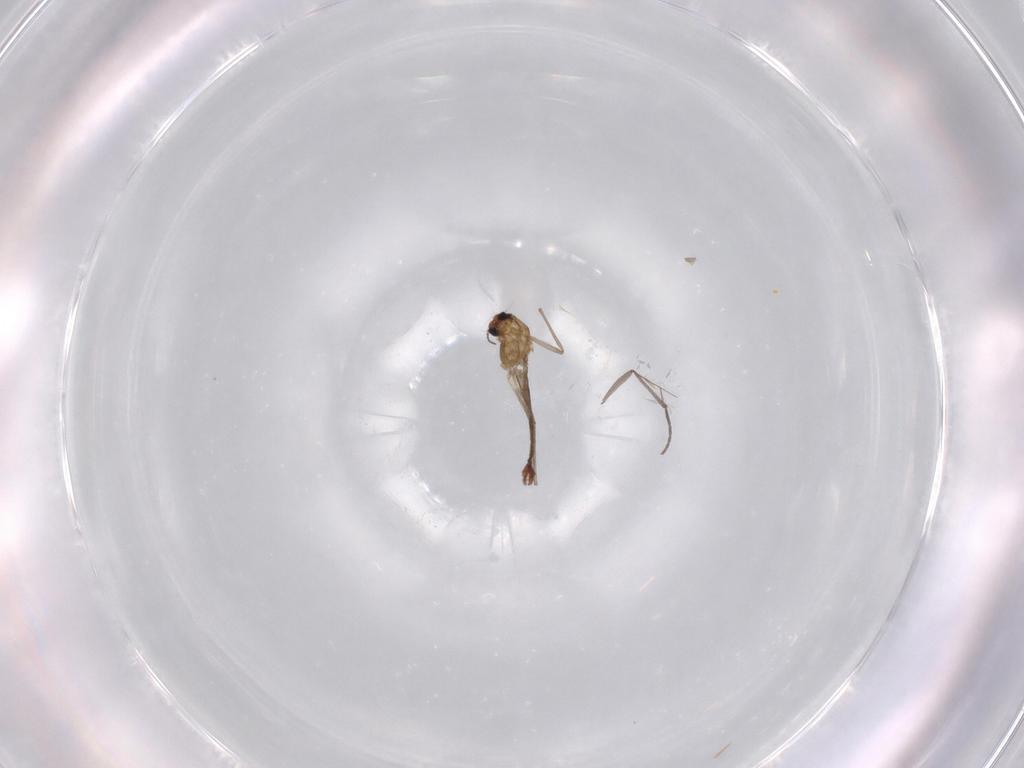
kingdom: Animalia
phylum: Arthropoda
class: Insecta
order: Diptera
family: Chironomidae
